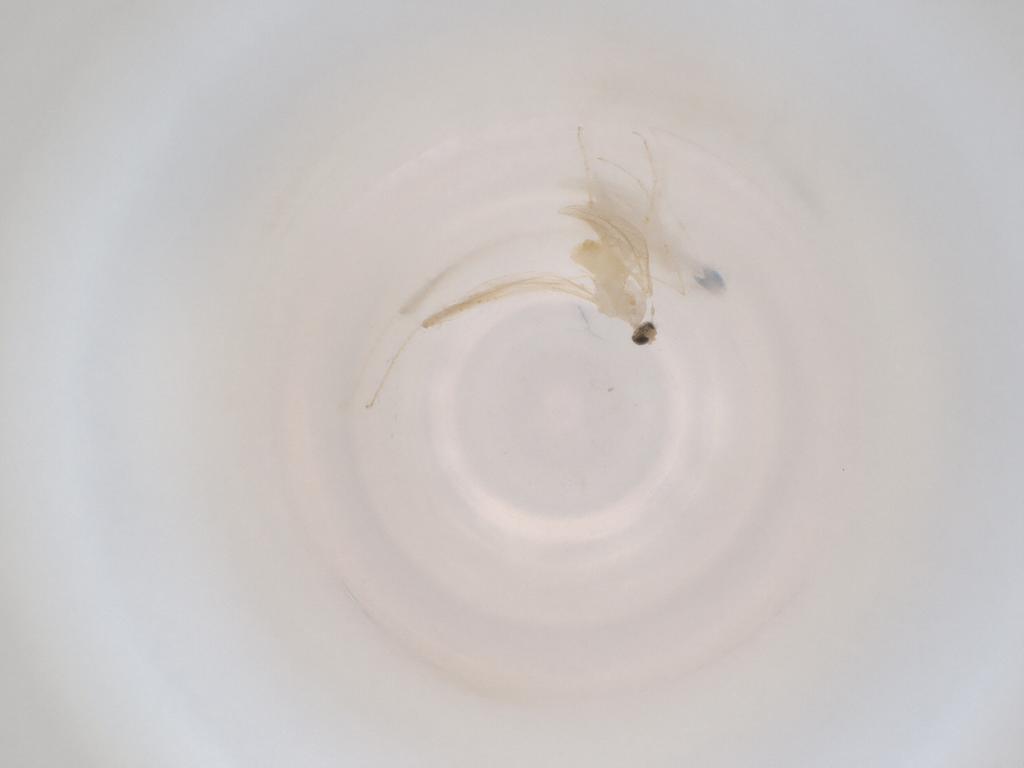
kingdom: Animalia
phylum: Arthropoda
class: Insecta
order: Diptera
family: Cecidomyiidae
